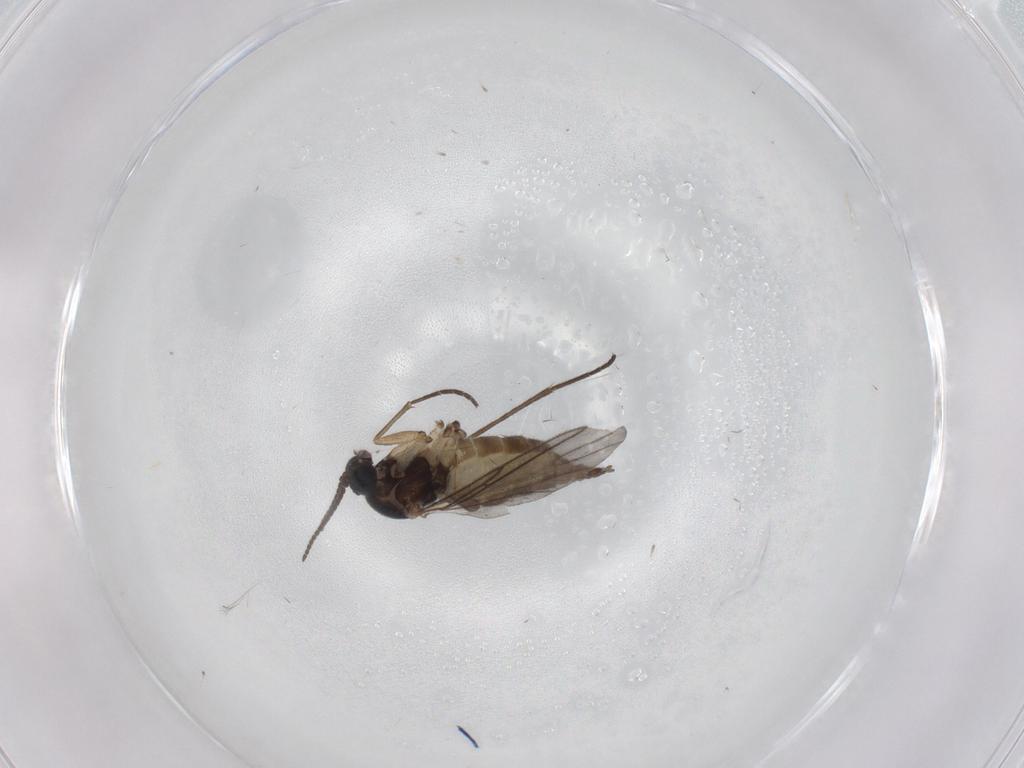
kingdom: Animalia
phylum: Arthropoda
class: Insecta
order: Diptera
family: Sciaridae
